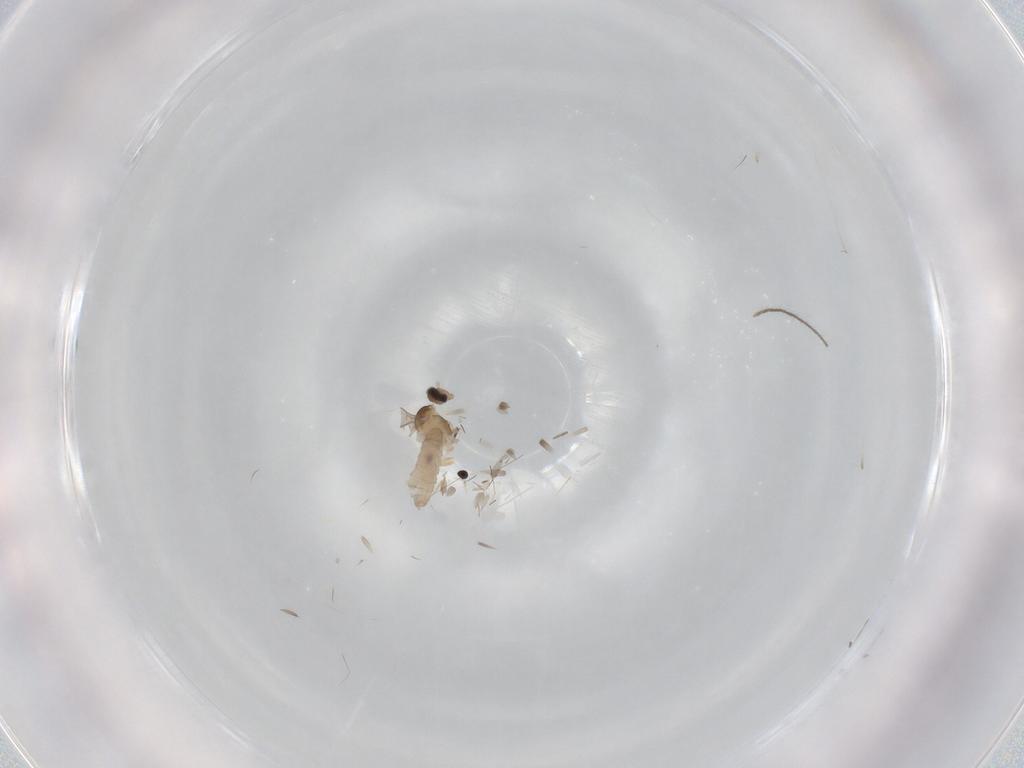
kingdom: Animalia
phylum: Arthropoda
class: Insecta
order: Diptera
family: Cecidomyiidae
